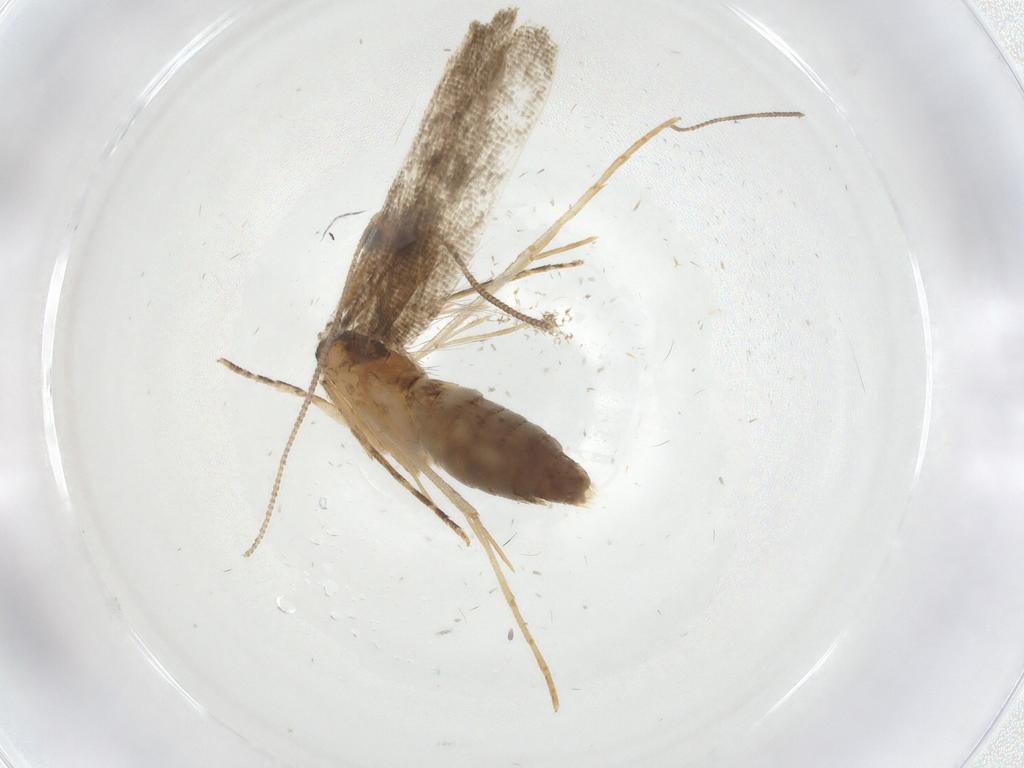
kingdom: Animalia
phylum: Arthropoda
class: Insecta
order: Lepidoptera
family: Tineidae
